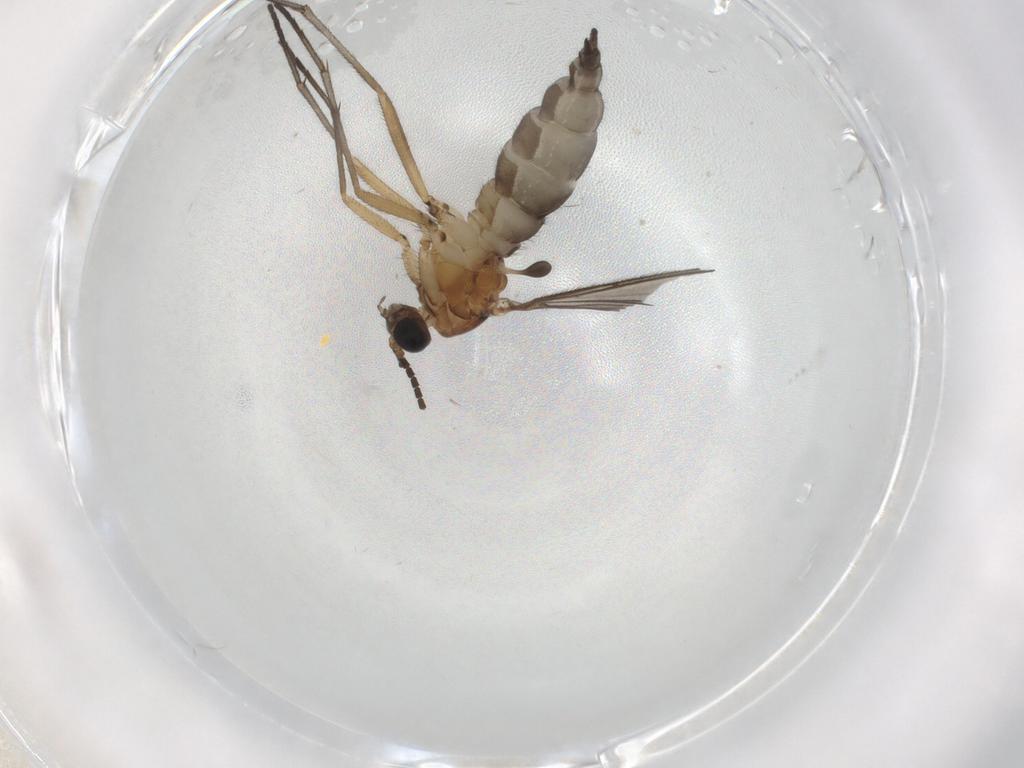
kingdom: Animalia
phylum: Arthropoda
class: Insecta
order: Diptera
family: Sciaridae
